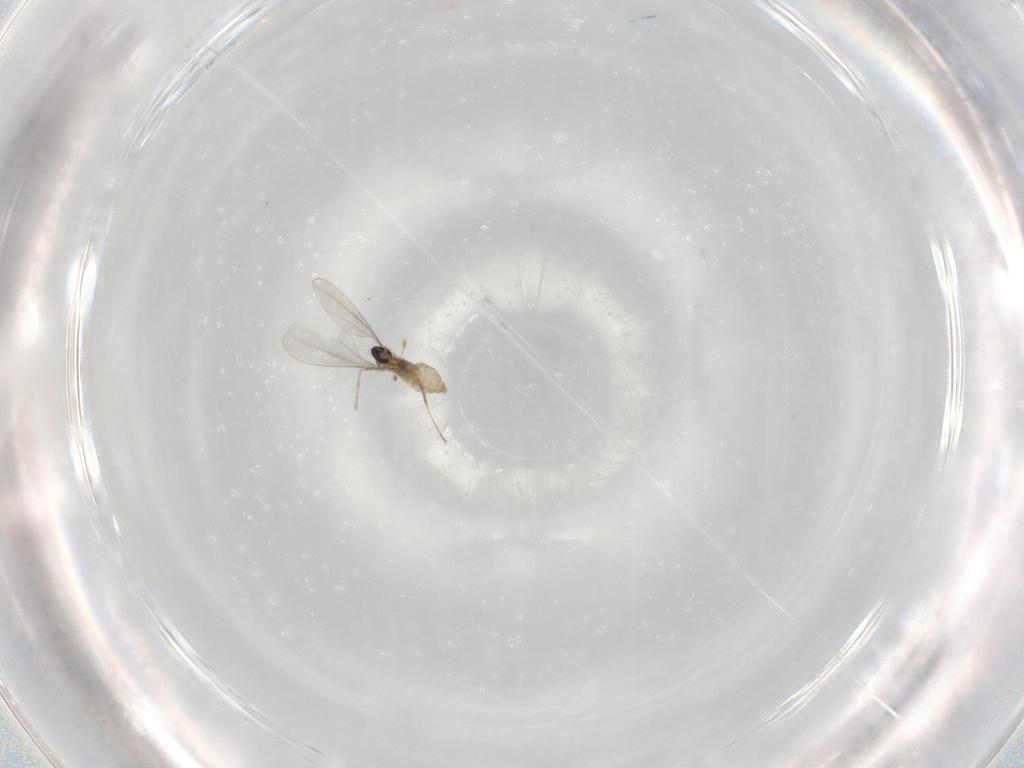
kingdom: Animalia
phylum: Arthropoda
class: Insecta
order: Diptera
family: Cecidomyiidae
